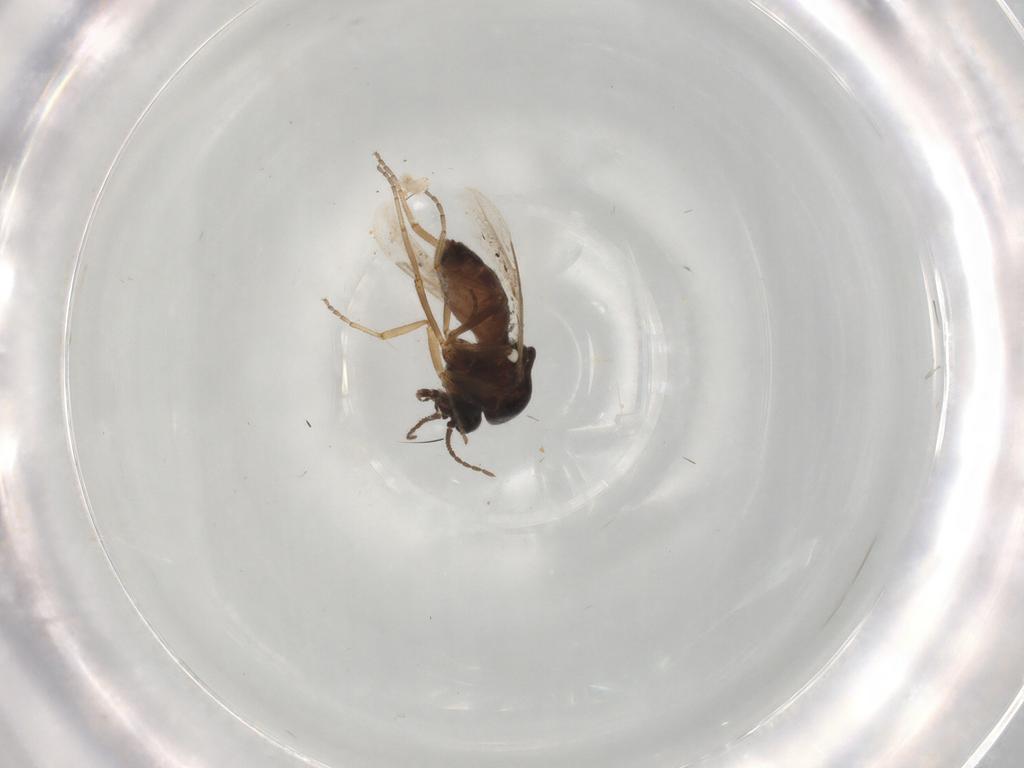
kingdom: Animalia
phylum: Arthropoda
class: Insecta
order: Diptera
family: Ceratopogonidae
